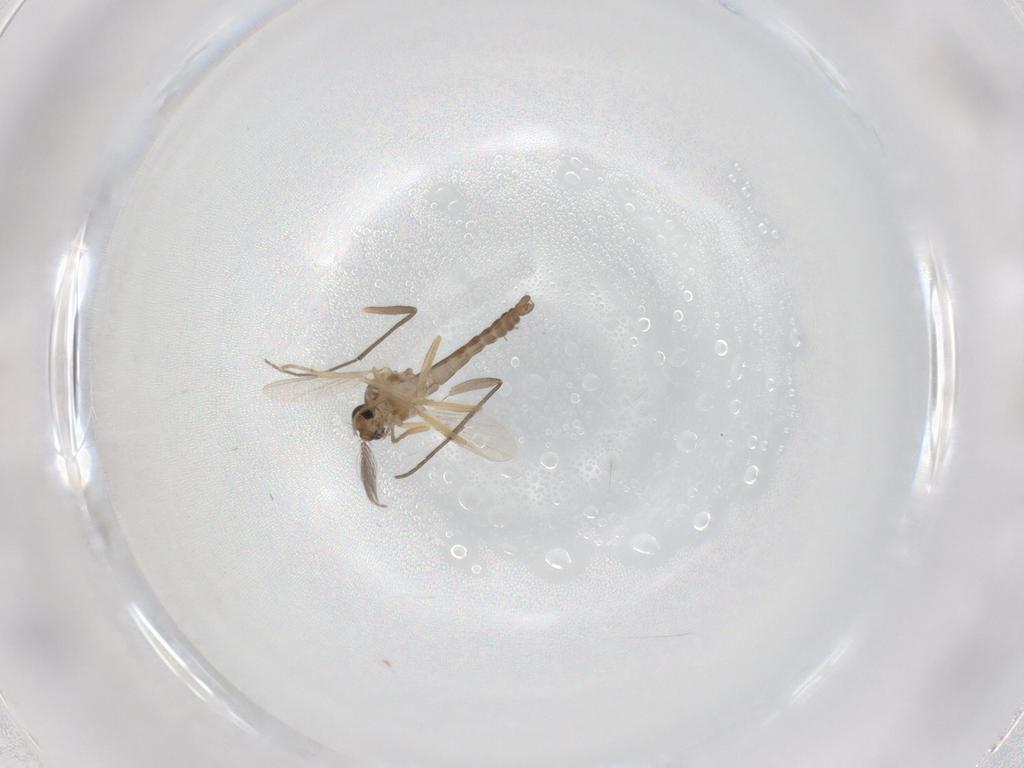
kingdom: Animalia
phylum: Arthropoda
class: Insecta
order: Diptera
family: Chironomidae
